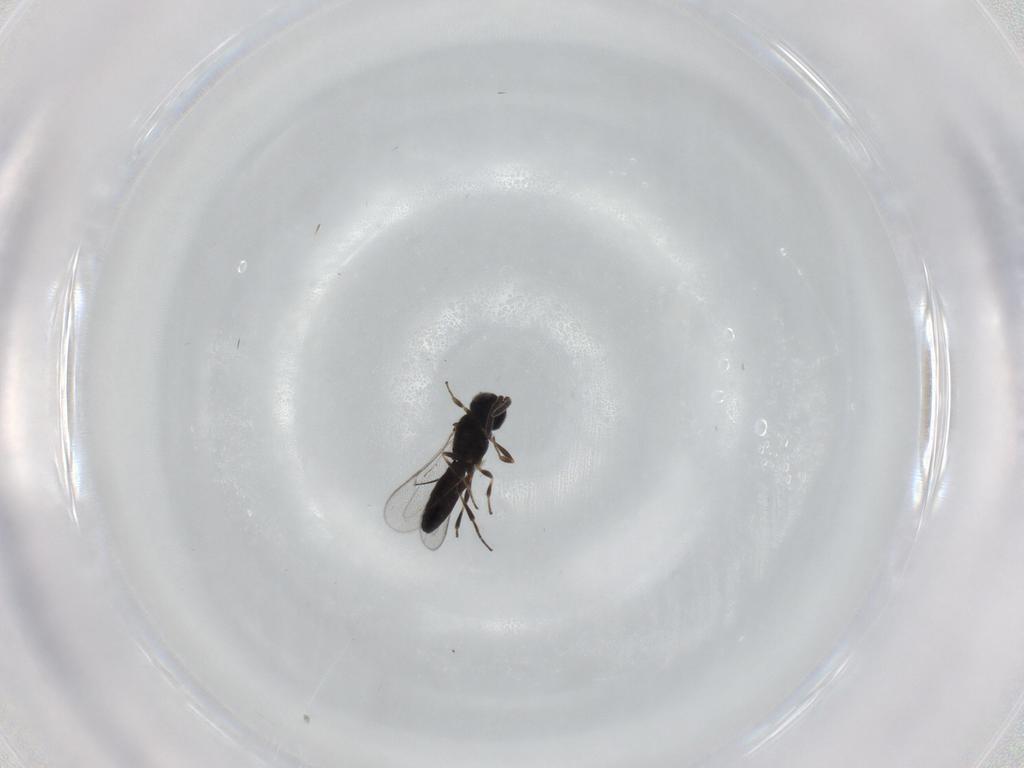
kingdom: Animalia
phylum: Arthropoda
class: Insecta
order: Hymenoptera
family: Scelionidae
